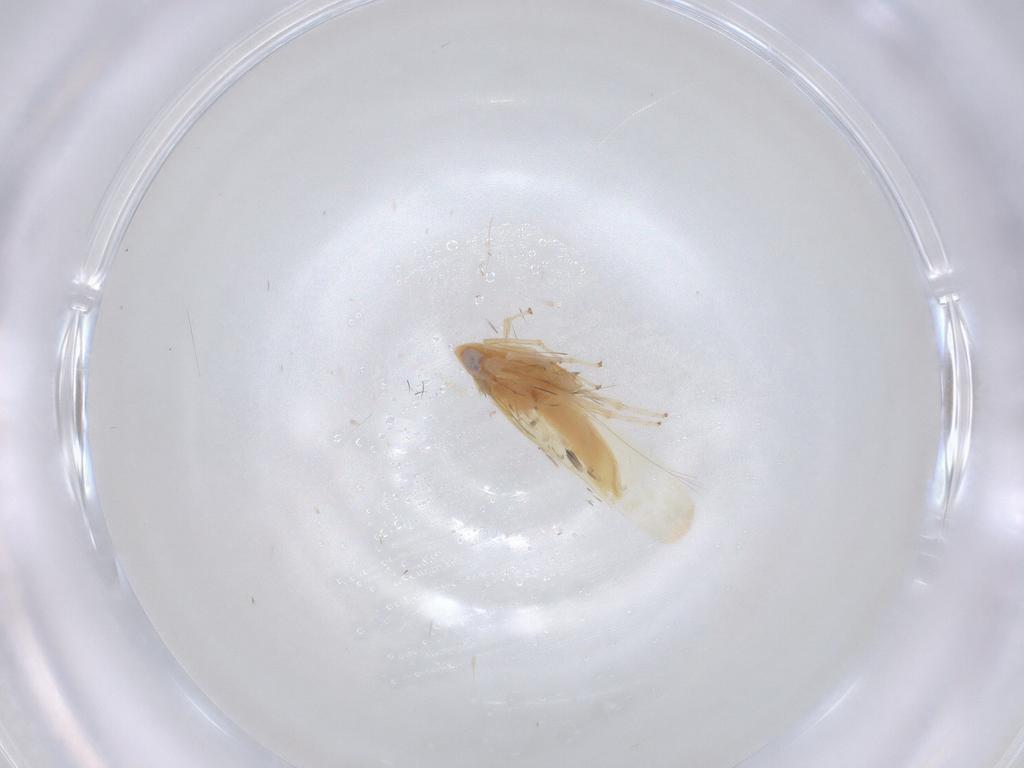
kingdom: Animalia
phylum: Arthropoda
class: Insecta
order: Hemiptera
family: Cicadellidae
